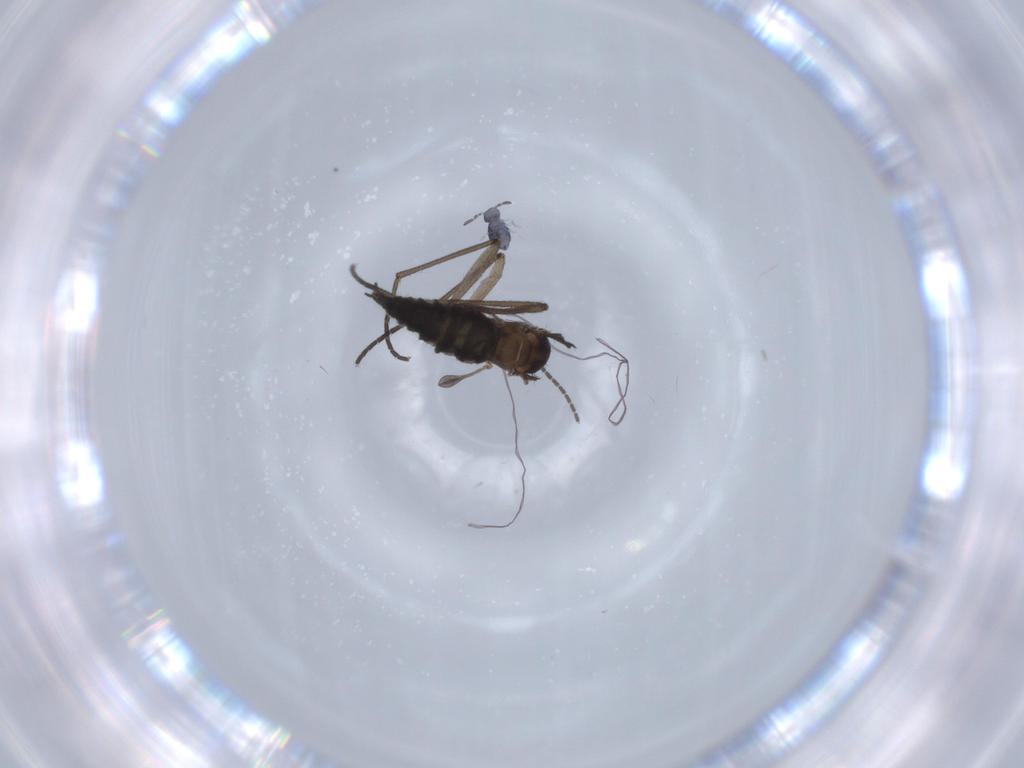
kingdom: Animalia
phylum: Arthropoda
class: Insecta
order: Diptera
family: Sciaridae
